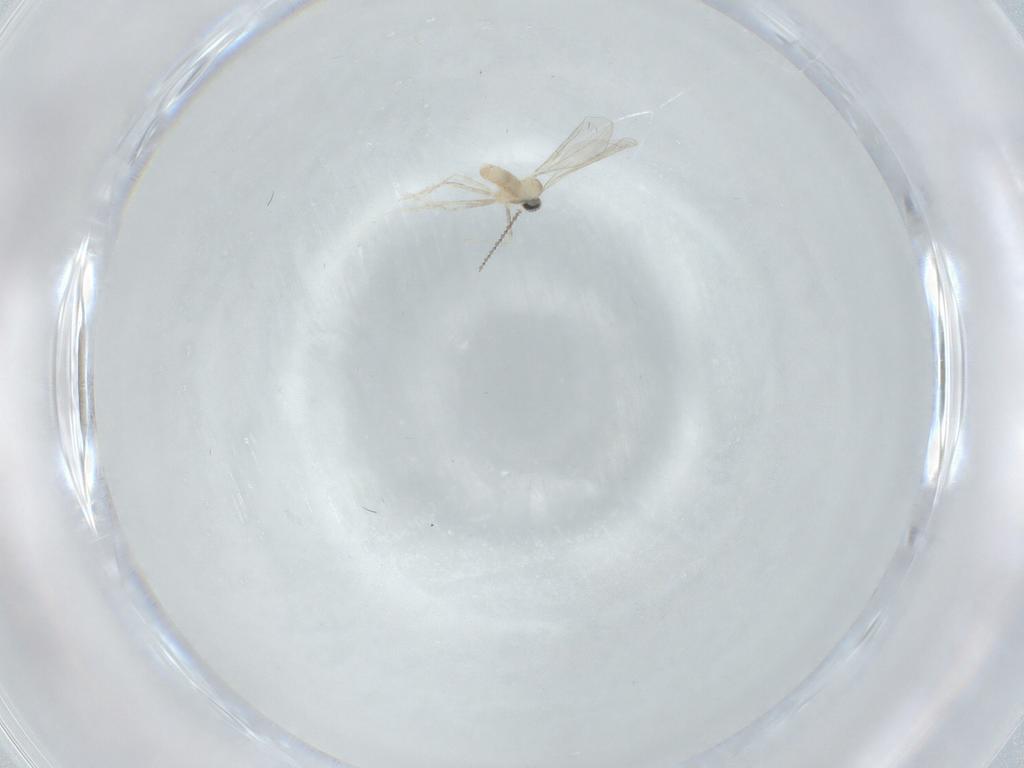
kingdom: Animalia
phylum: Arthropoda
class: Insecta
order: Diptera
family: Cecidomyiidae
